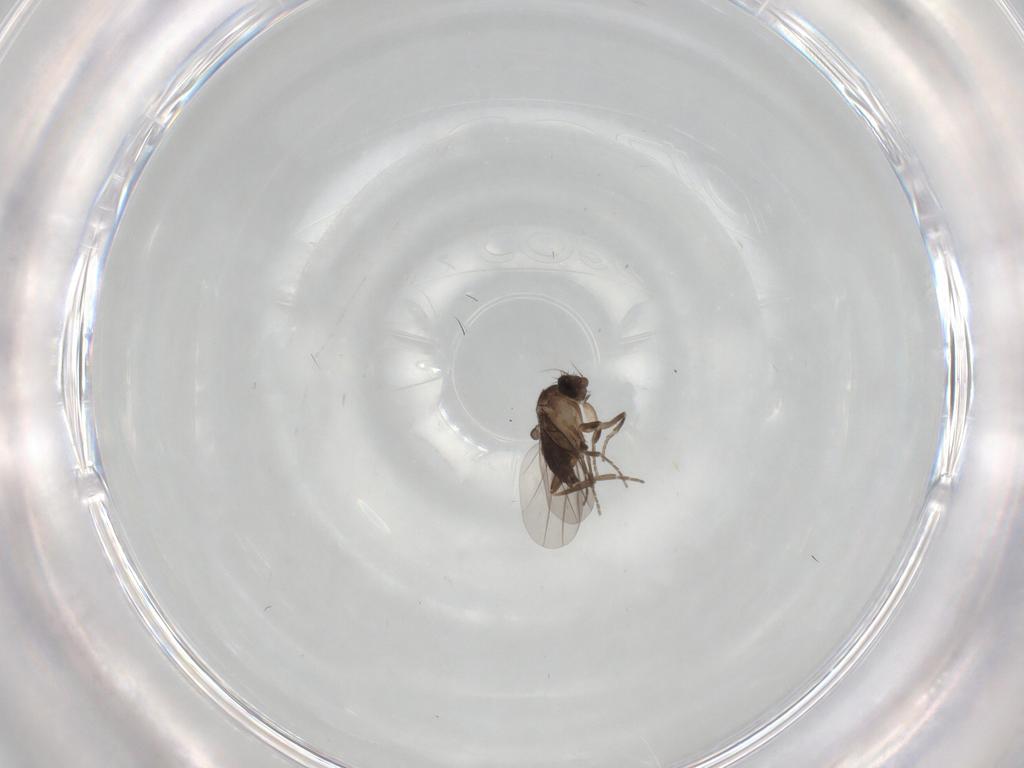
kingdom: Animalia
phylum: Arthropoda
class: Insecta
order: Diptera
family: Phoridae
